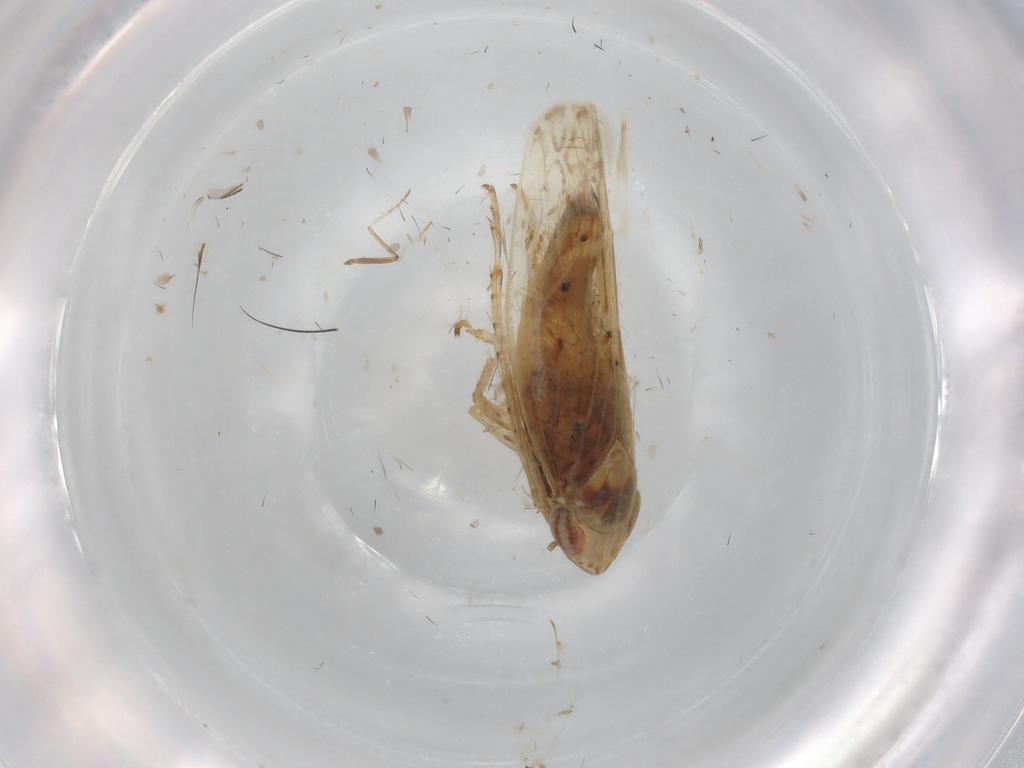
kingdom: Animalia
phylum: Arthropoda
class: Insecta
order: Hemiptera
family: Cicadellidae
